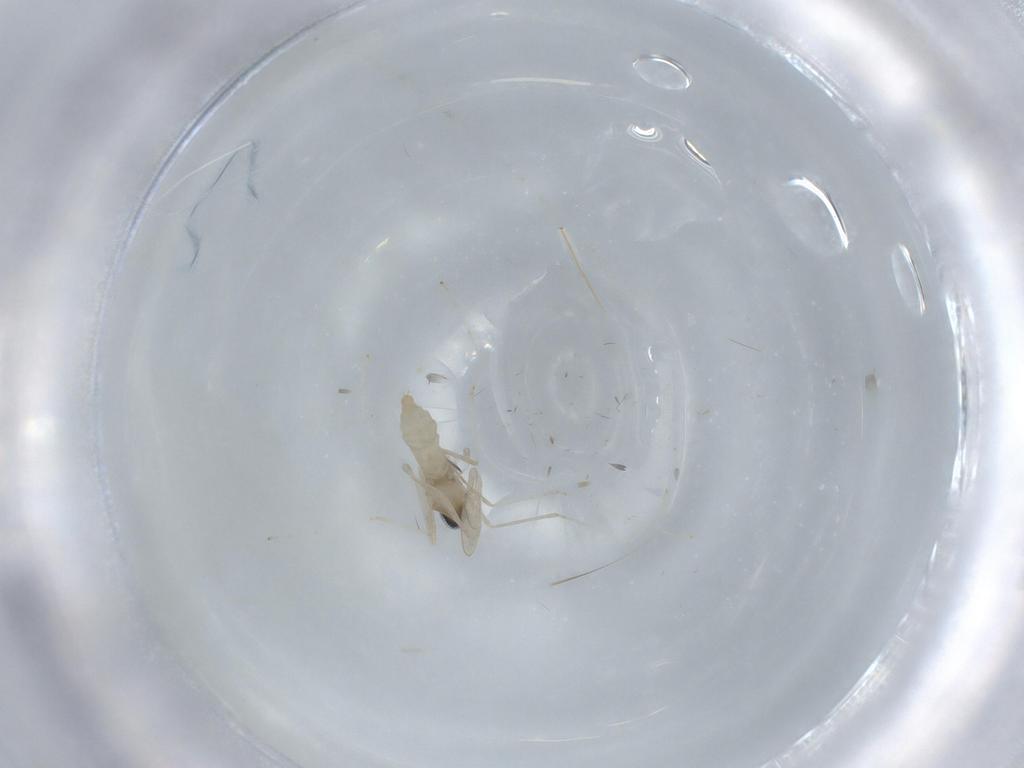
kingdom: Animalia
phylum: Arthropoda
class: Insecta
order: Diptera
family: Cecidomyiidae
